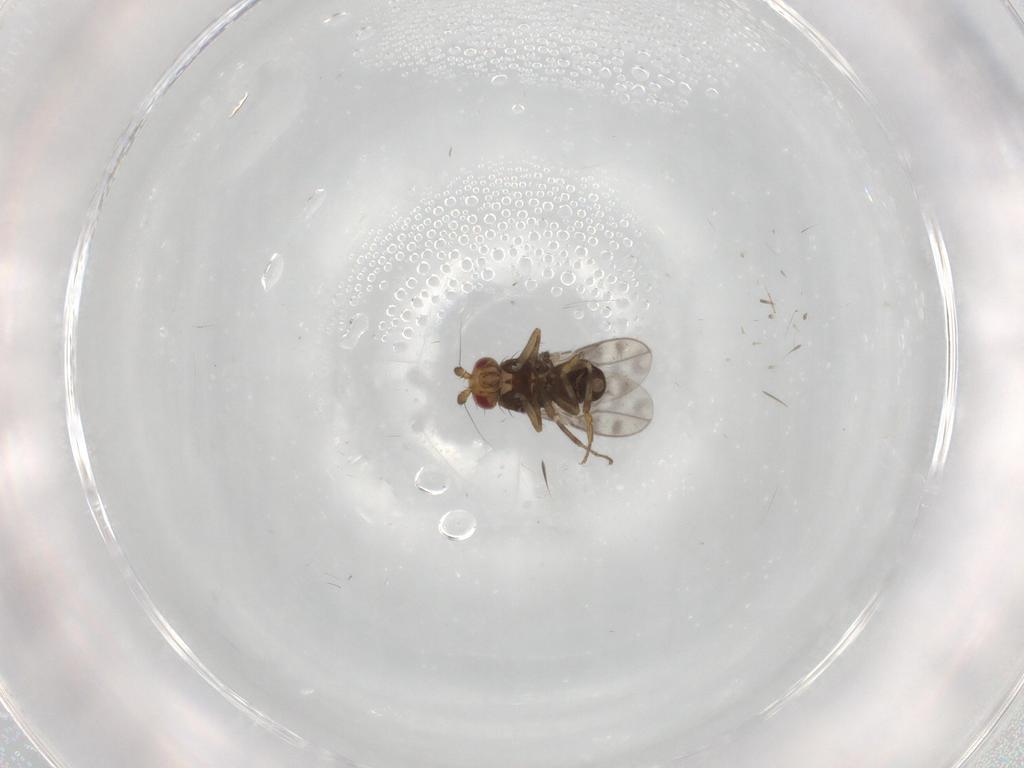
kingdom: Animalia
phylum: Arthropoda
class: Insecta
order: Diptera
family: Sphaeroceridae
